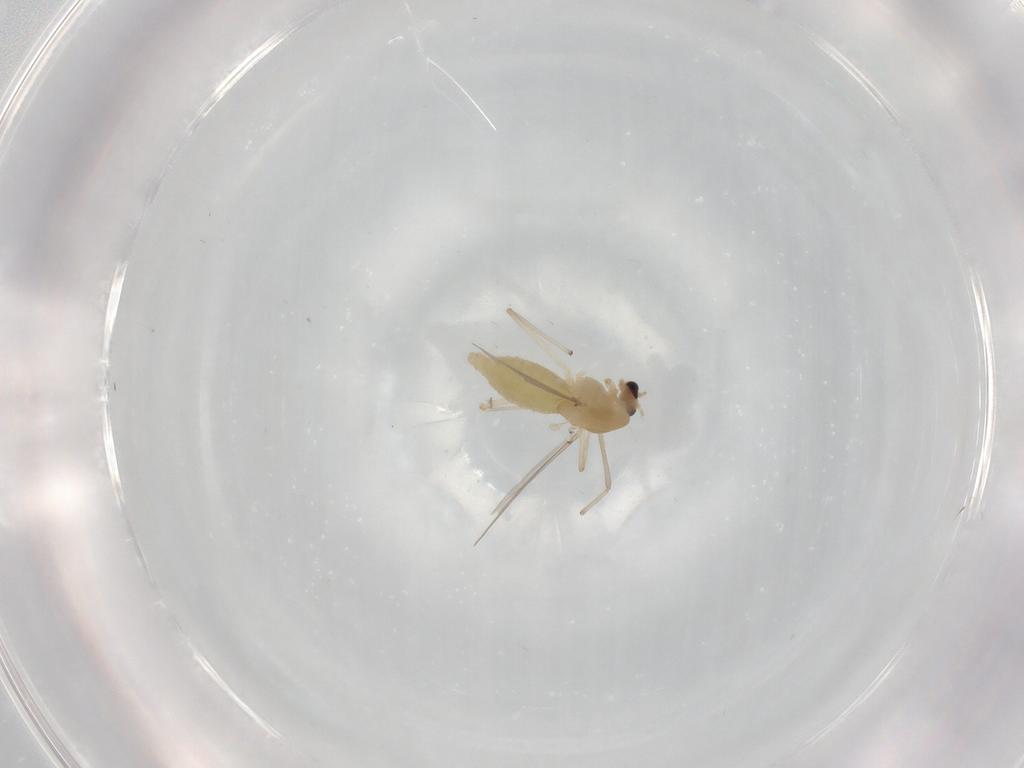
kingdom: Animalia
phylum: Arthropoda
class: Insecta
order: Diptera
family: Chironomidae
